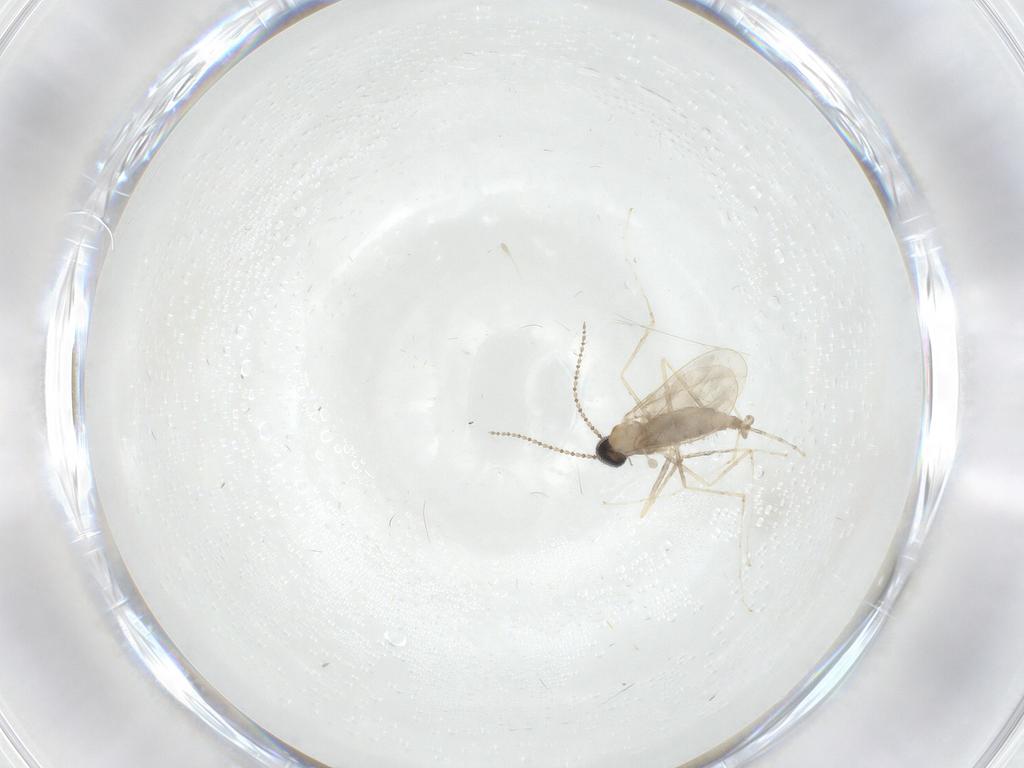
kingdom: Animalia
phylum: Arthropoda
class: Insecta
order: Diptera
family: Cecidomyiidae
